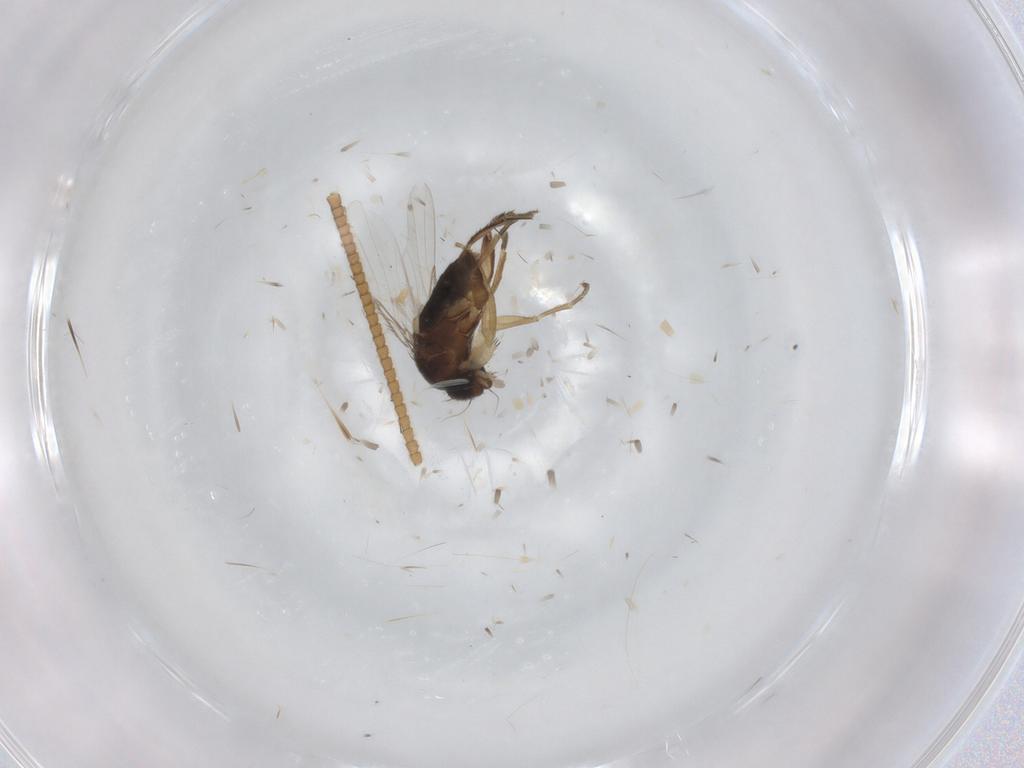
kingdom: Animalia
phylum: Arthropoda
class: Insecta
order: Diptera
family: Phoridae
